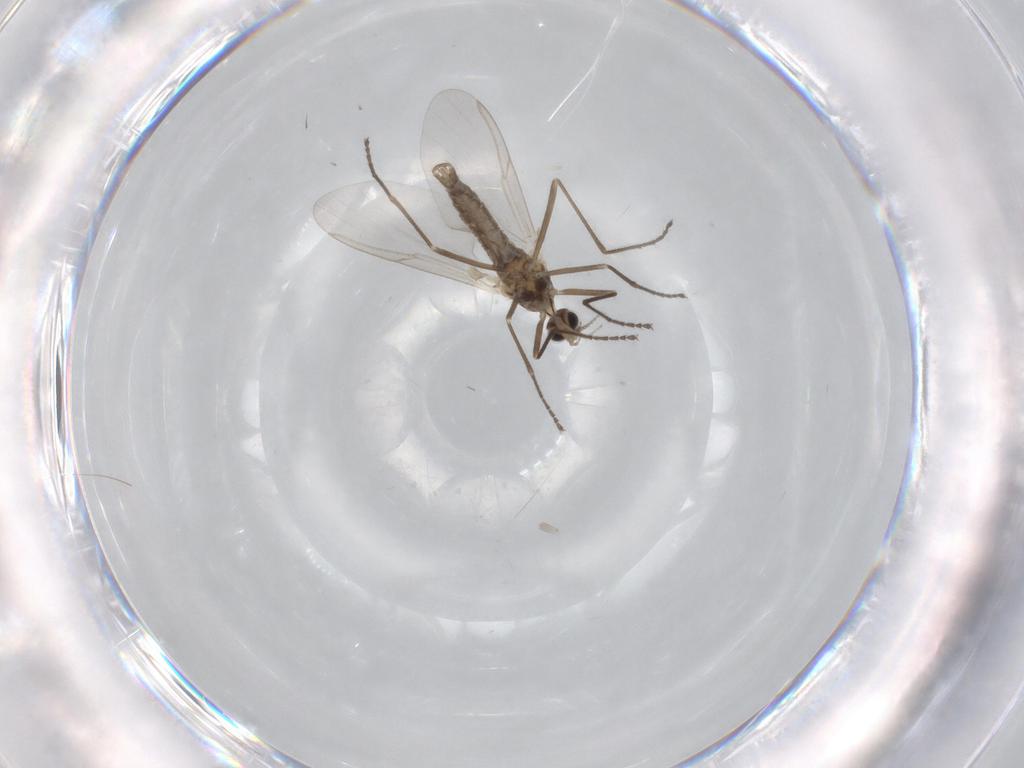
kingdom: Animalia
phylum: Arthropoda
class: Insecta
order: Diptera
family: Cecidomyiidae
